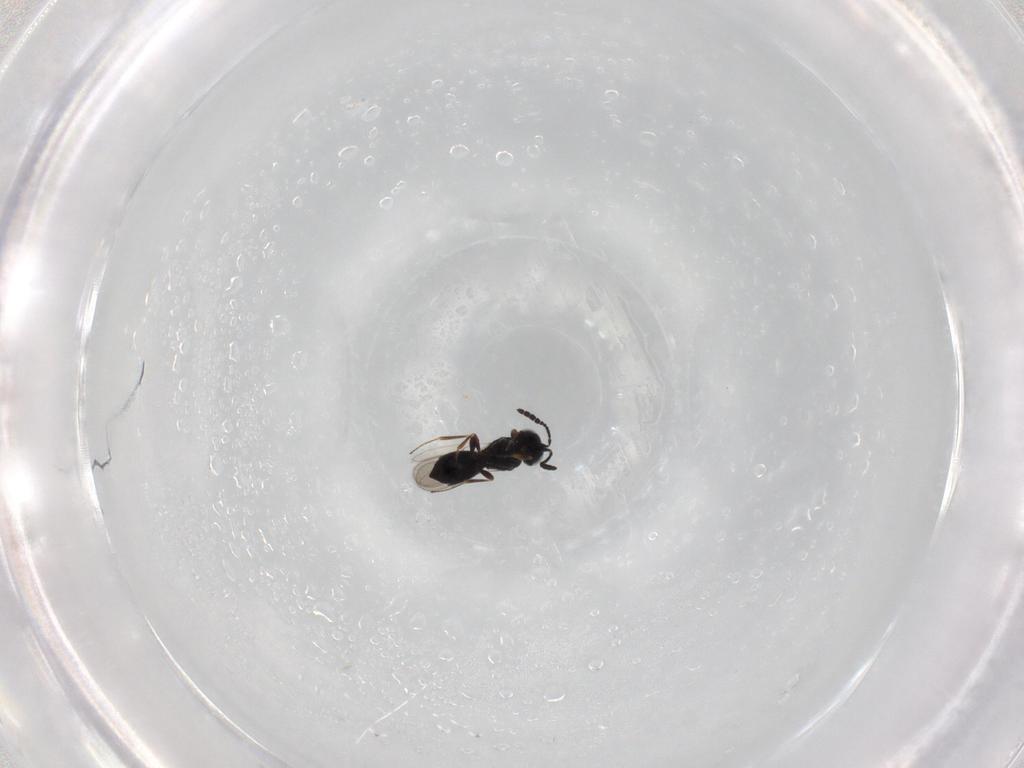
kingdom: Animalia
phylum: Arthropoda
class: Insecta
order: Hymenoptera
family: Scelionidae
